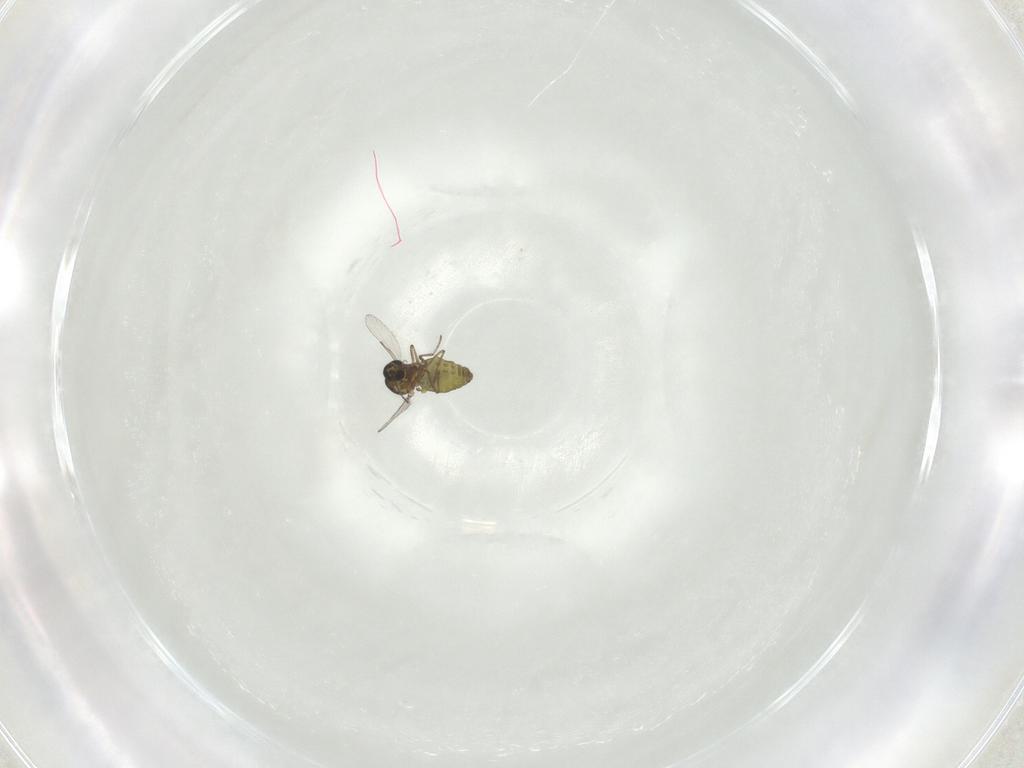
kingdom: Animalia
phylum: Arthropoda
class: Insecta
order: Diptera
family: Ceratopogonidae
